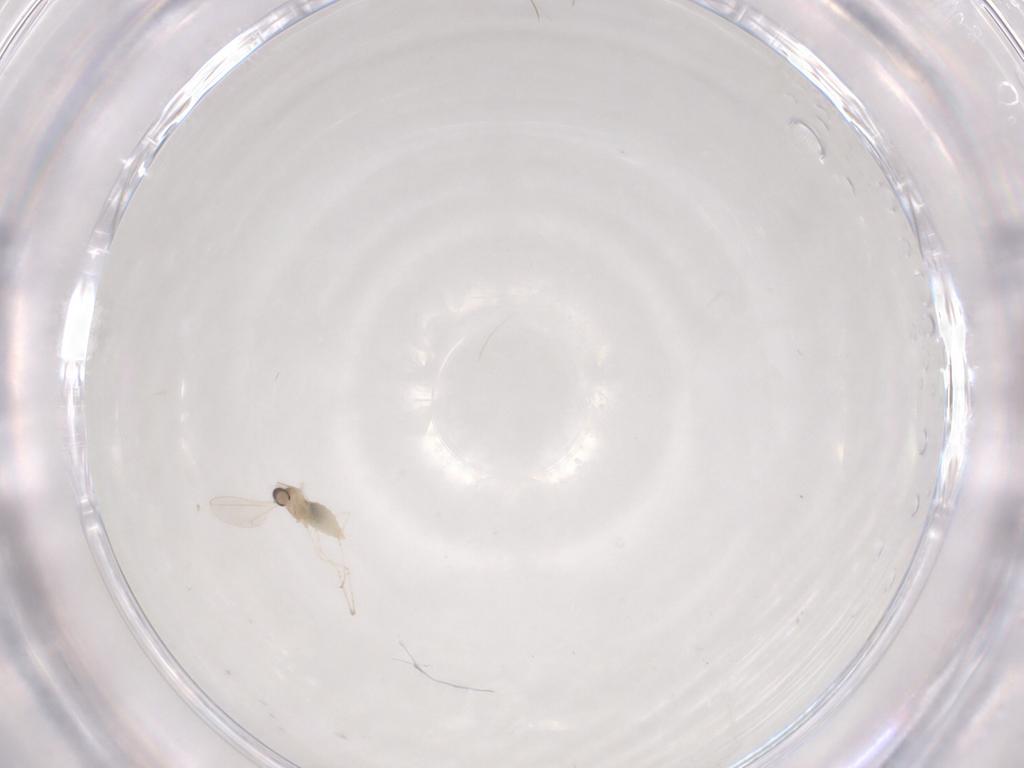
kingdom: Animalia
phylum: Arthropoda
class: Insecta
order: Diptera
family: Cecidomyiidae
